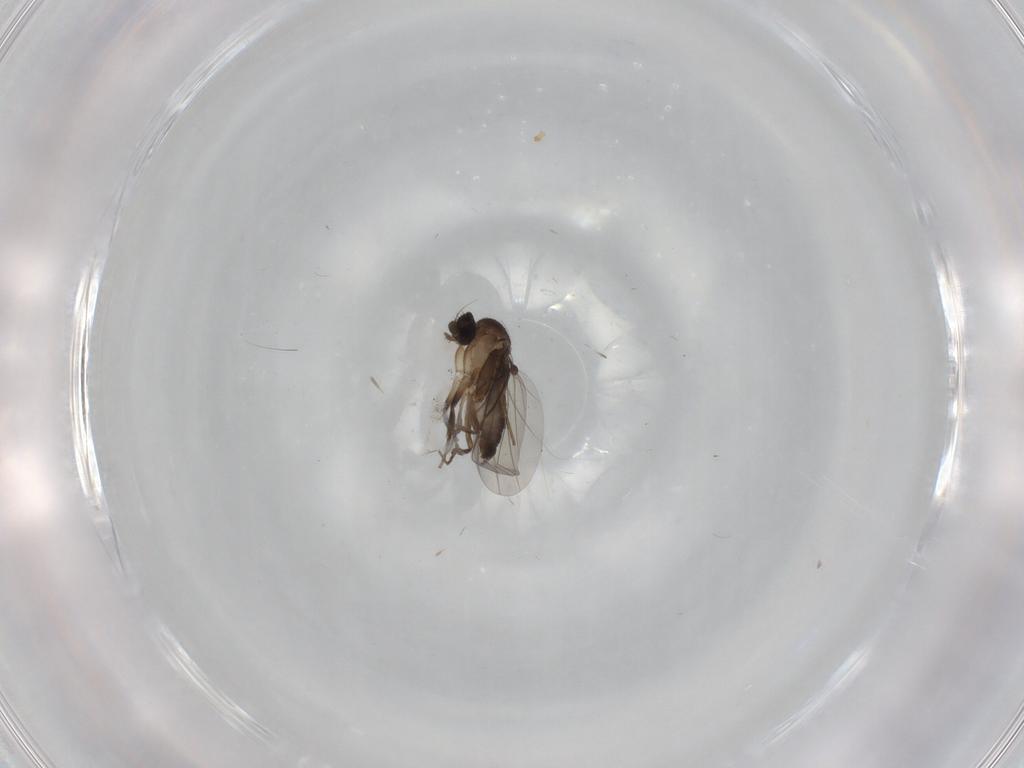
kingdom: Animalia
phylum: Arthropoda
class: Insecta
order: Diptera
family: Phoridae
